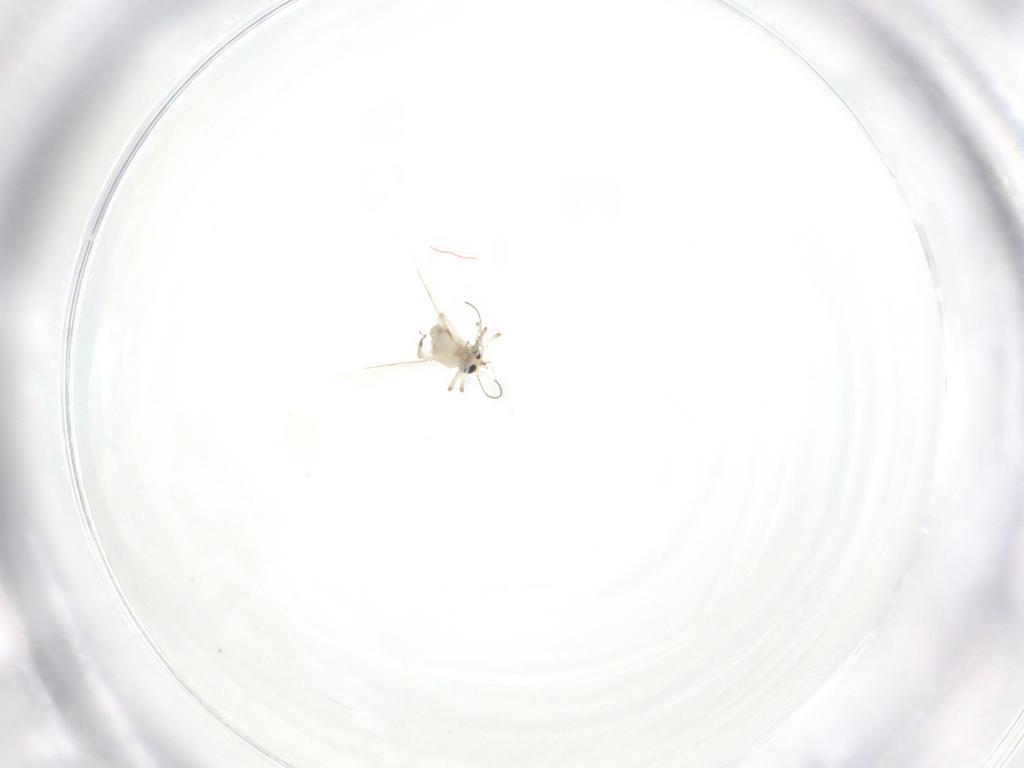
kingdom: Animalia
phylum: Arthropoda
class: Insecta
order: Diptera
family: Ceratopogonidae
